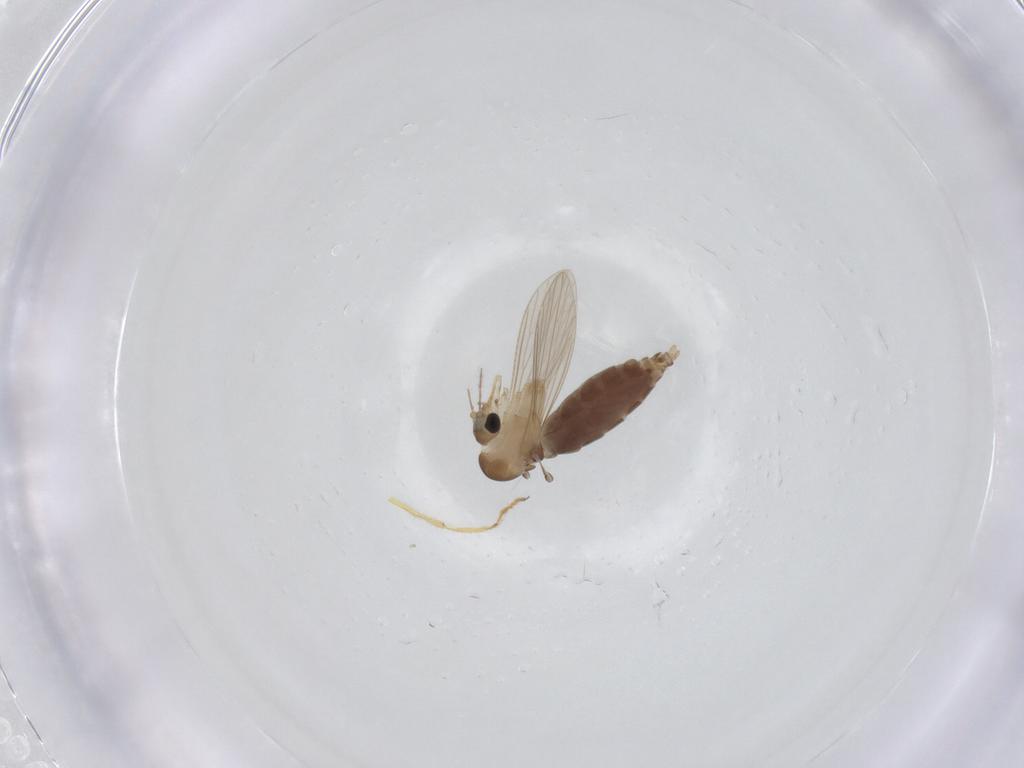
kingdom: Animalia
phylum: Arthropoda
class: Insecta
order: Diptera
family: Psychodidae
